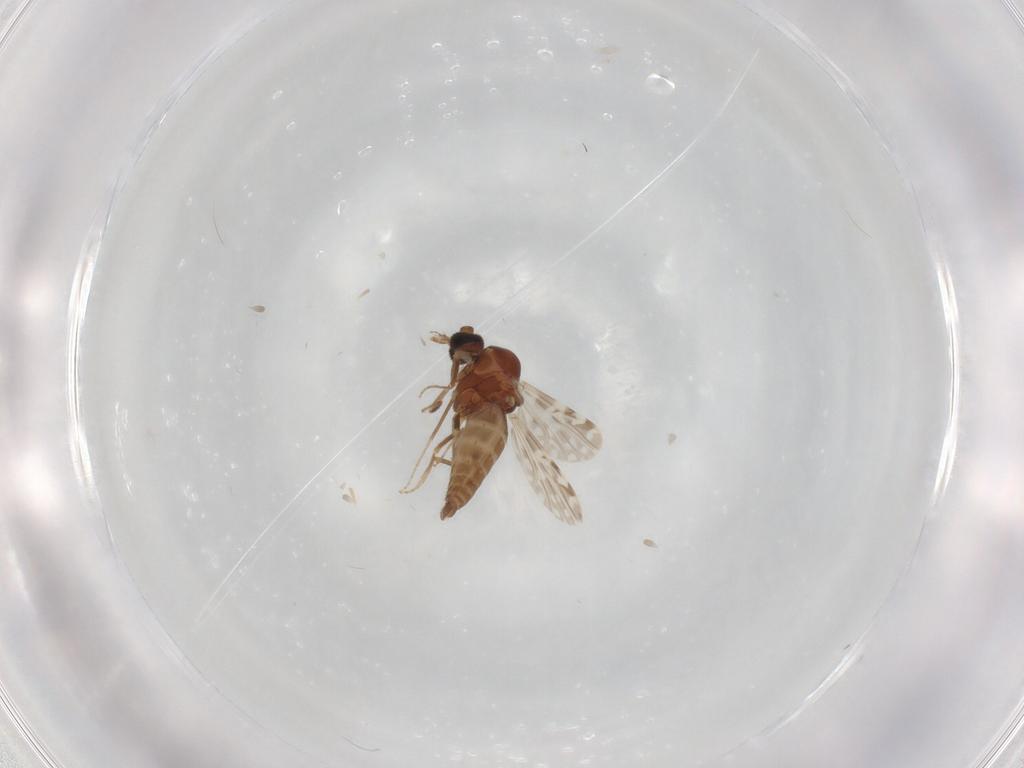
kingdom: Animalia
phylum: Arthropoda
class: Insecta
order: Diptera
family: Ceratopogonidae
